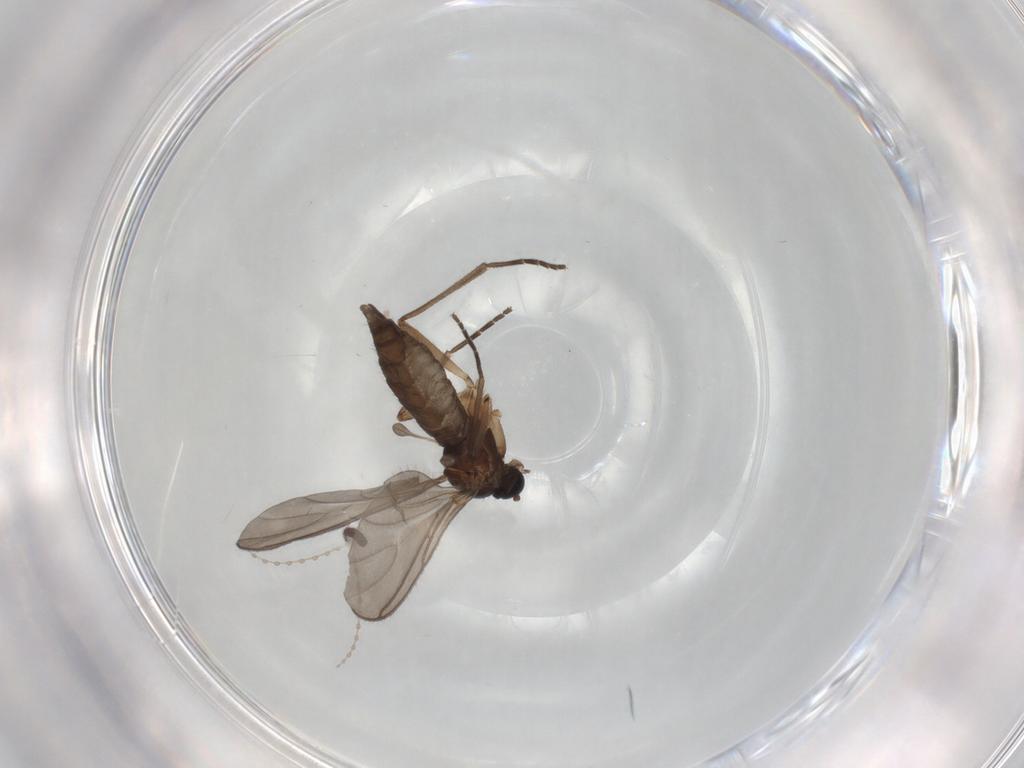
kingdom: Animalia
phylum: Arthropoda
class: Insecta
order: Diptera
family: Sciaridae
